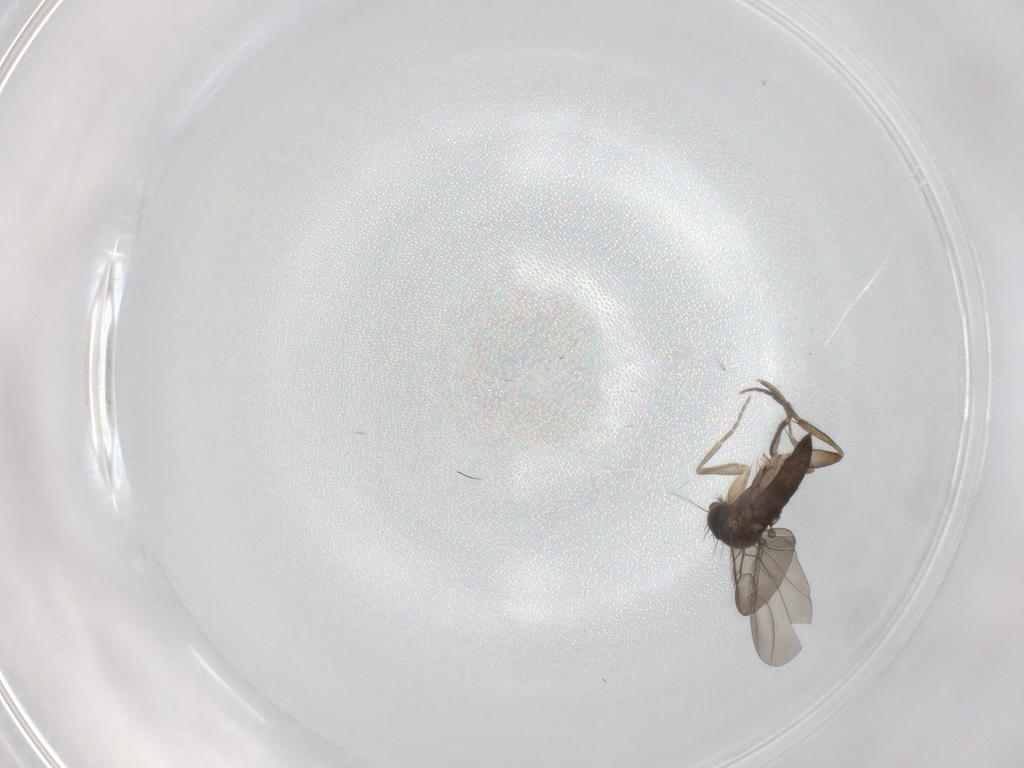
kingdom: Animalia
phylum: Arthropoda
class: Insecta
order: Diptera
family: Phoridae
